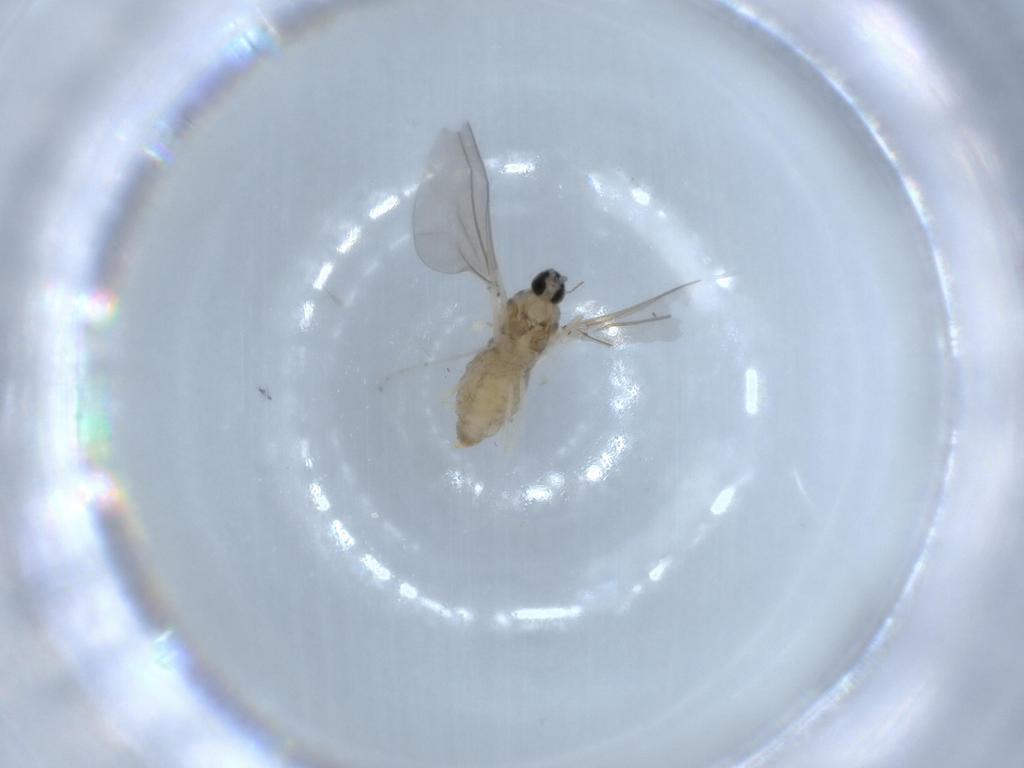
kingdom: Animalia
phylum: Arthropoda
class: Insecta
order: Diptera
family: Cecidomyiidae
